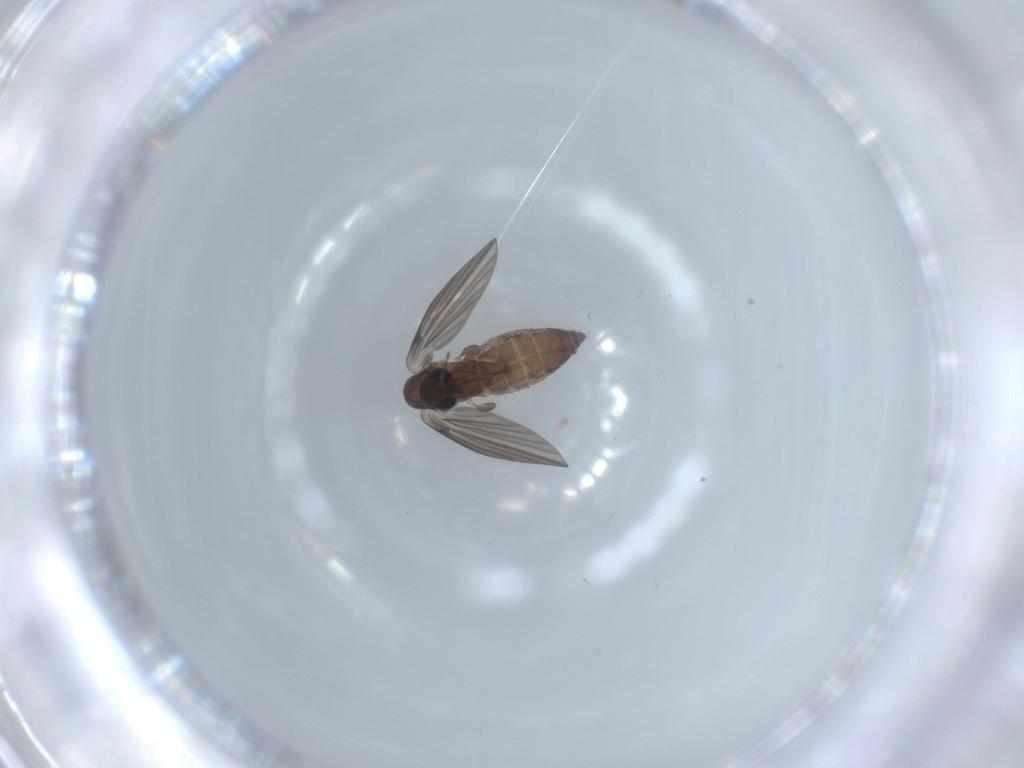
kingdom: Animalia
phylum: Arthropoda
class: Insecta
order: Diptera
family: Psychodidae
